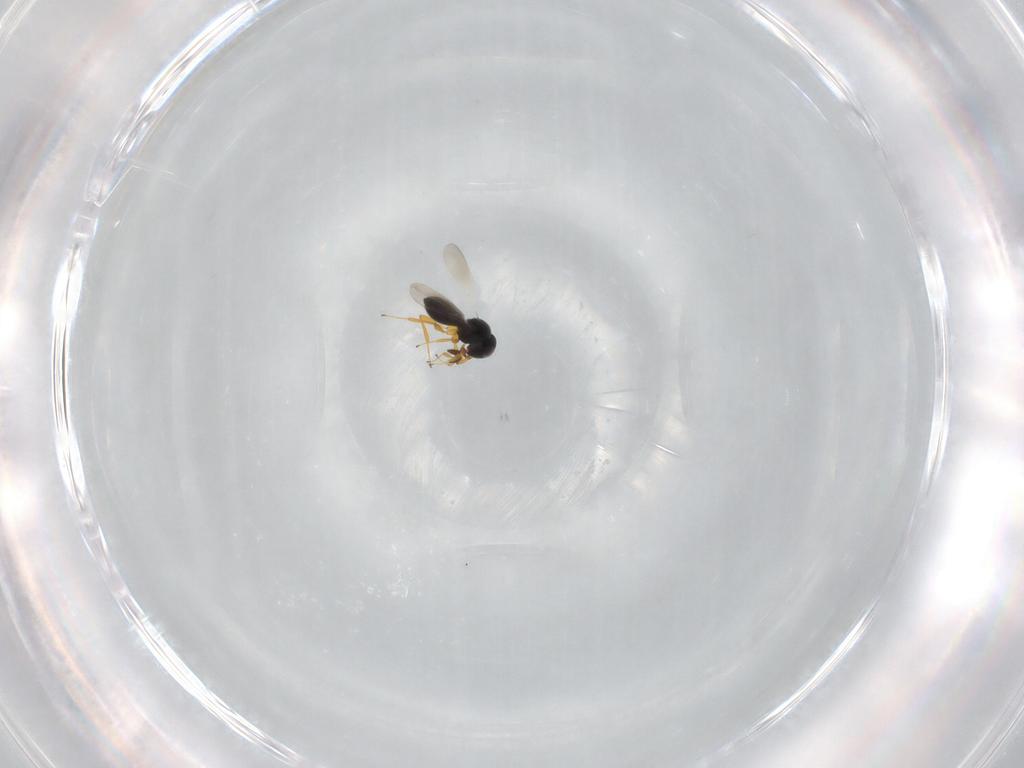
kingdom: Animalia
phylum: Arthropoda
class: Insecta
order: Hymenoptera
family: Platygastridae
